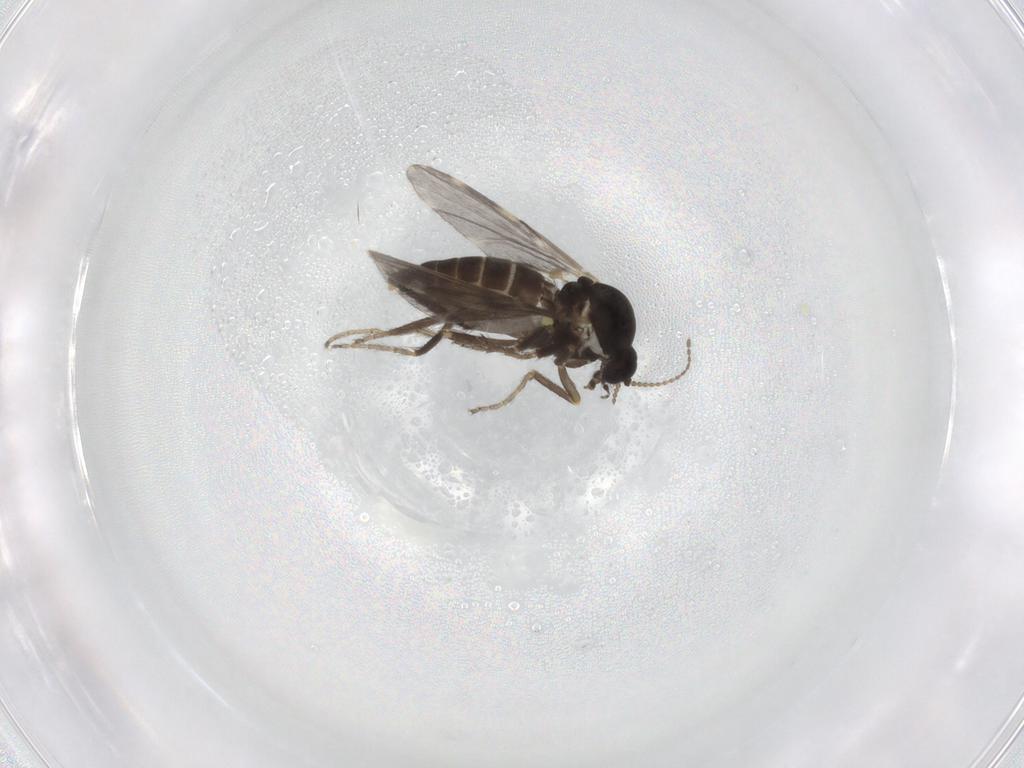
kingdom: Animalia
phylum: Arthropoda
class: Insecta
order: Diptera
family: Ceratopogonidae
